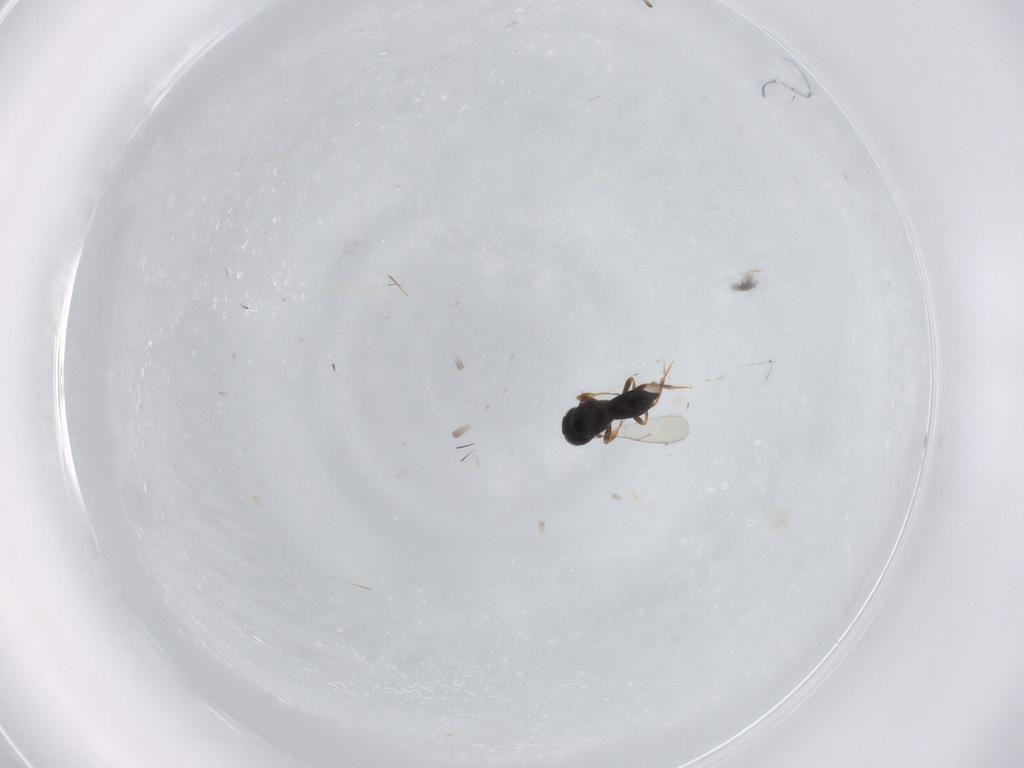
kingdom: Animalia
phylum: Arthropoda
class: Insecta
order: Hymenoptera
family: Scelionidae
